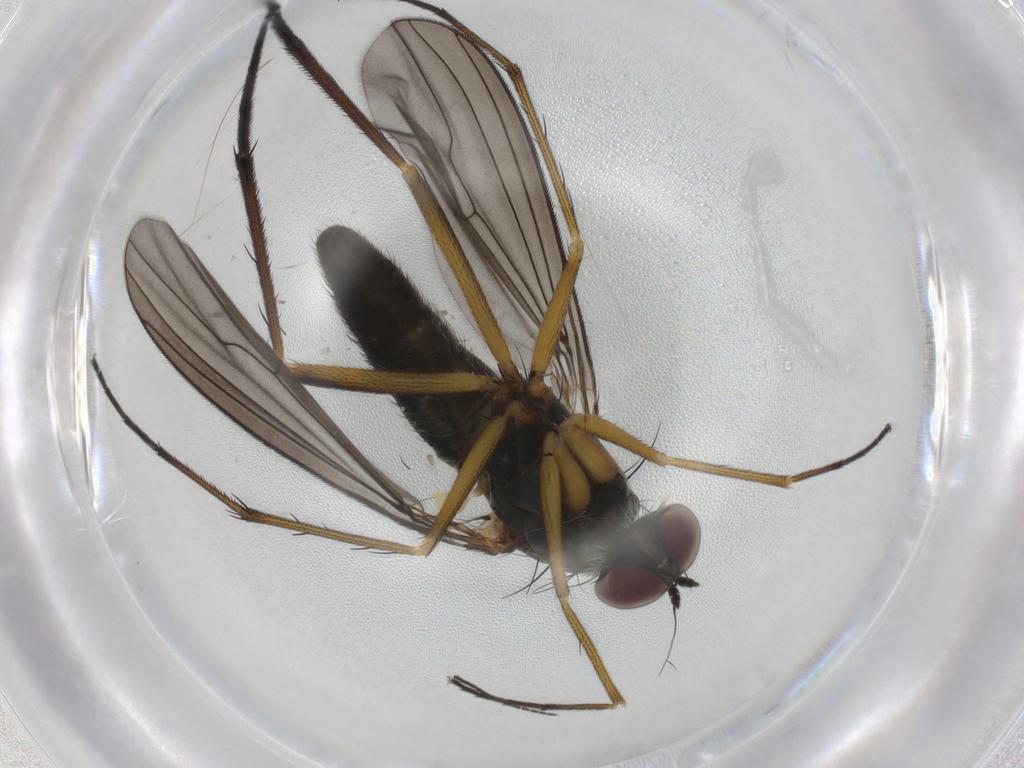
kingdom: Animalia
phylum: Arthropoda
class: Insecta
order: Diptera
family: Dolichopodidae
